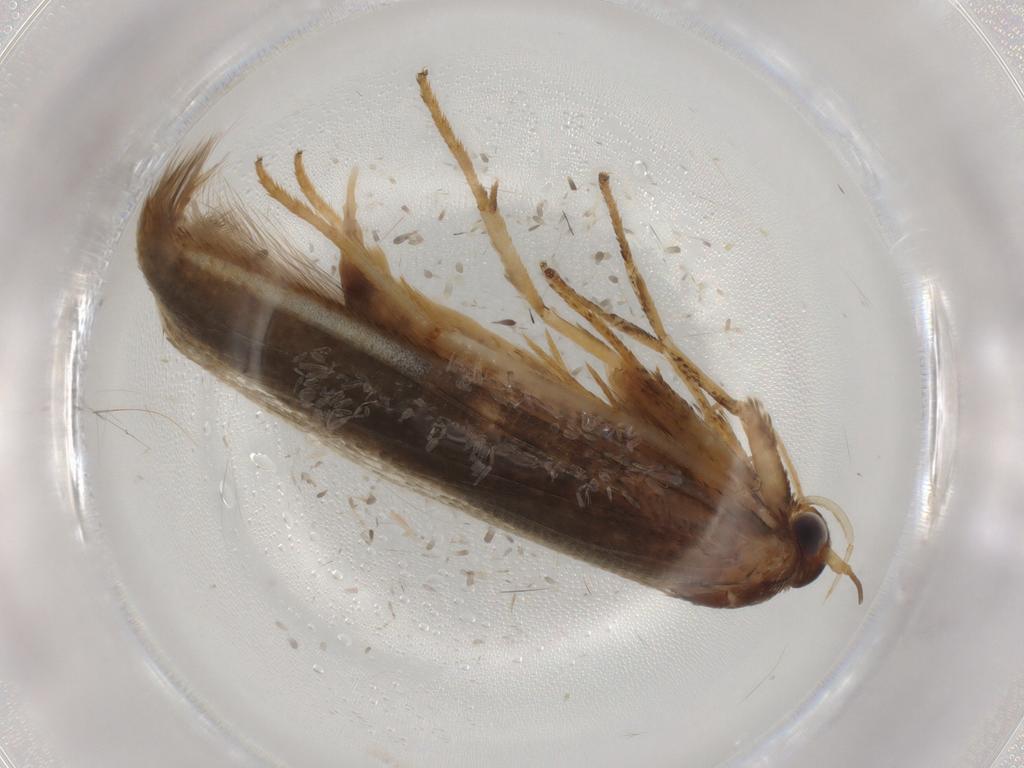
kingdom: Animalia
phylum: Arthropoda
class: Insecta
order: Lepidoptera
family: Blastobasidae
